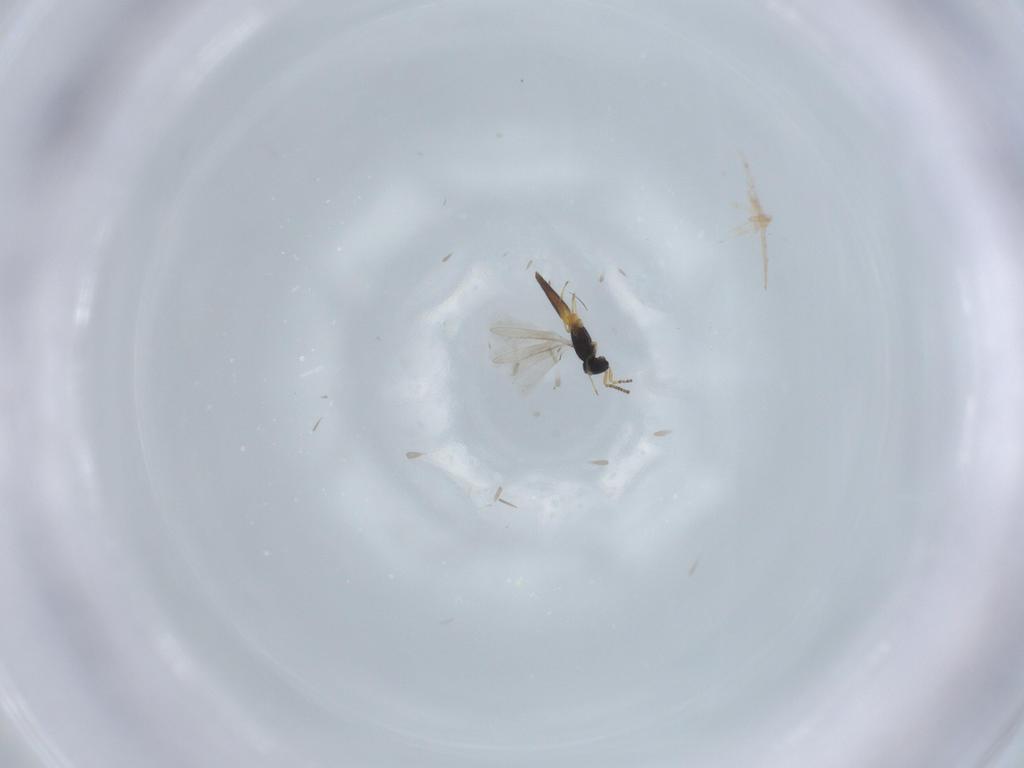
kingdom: Animalia
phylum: Arthropoda
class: Insecta
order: Hymenoptera
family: Scelionidae
